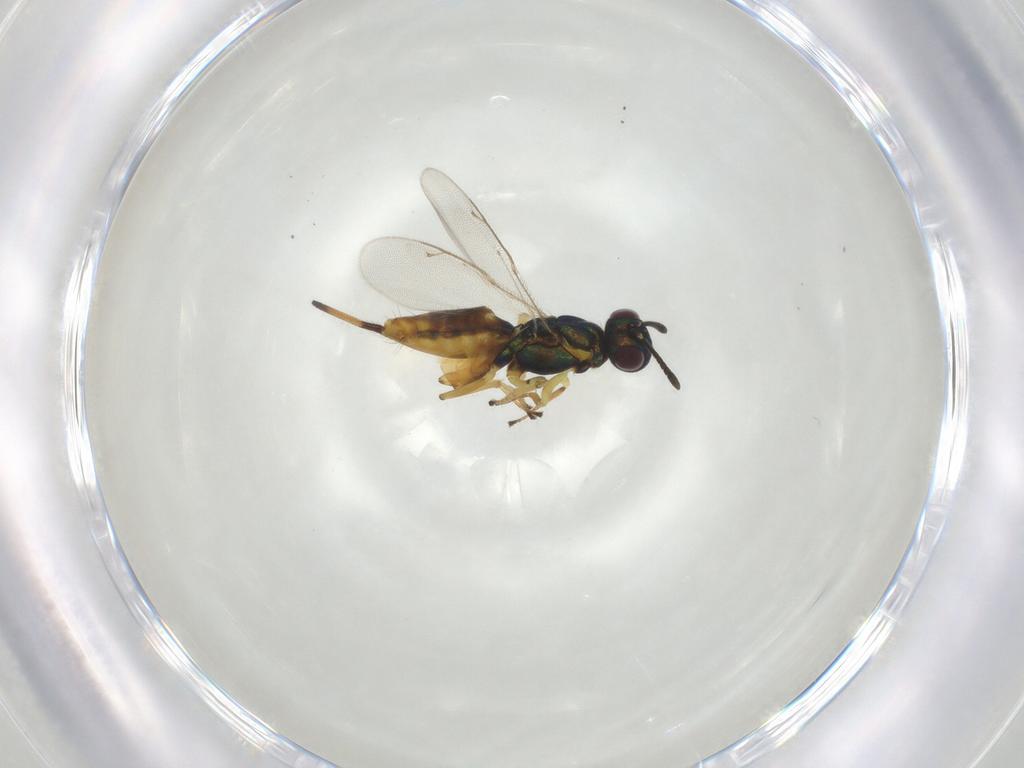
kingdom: Animalia
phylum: Arthropoda
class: Insecta
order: Hymenoptera
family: Eupelmidae
